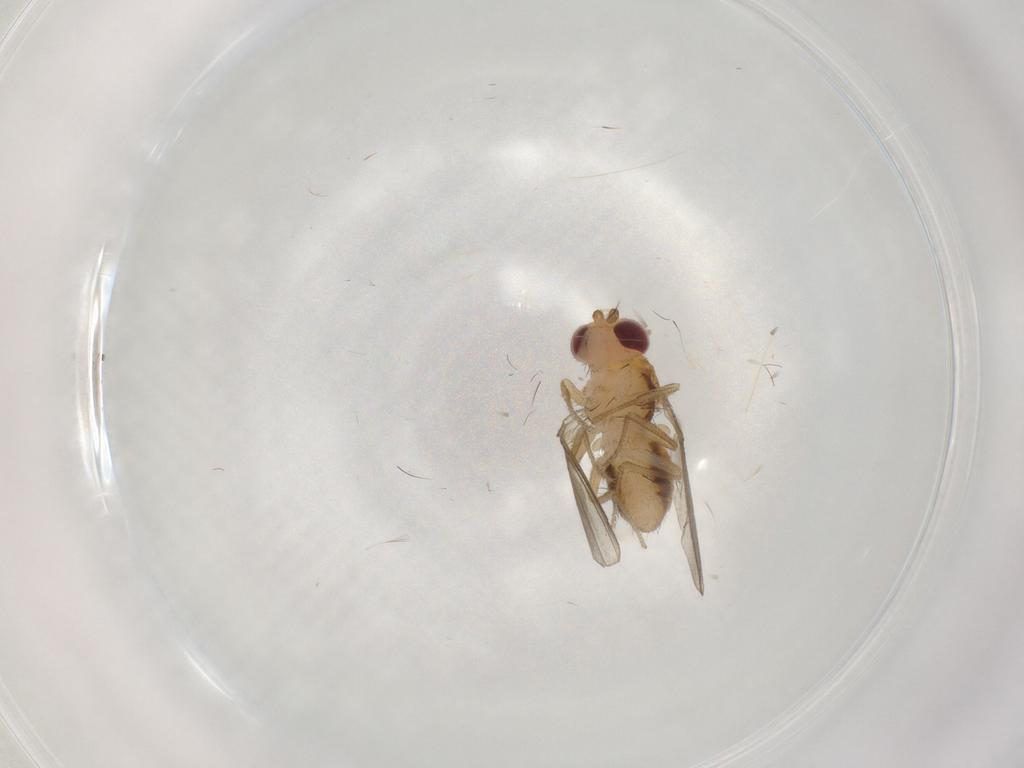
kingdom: Animalia
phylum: Arthropoda
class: Insecta
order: Diptera
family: Drosophilidae
